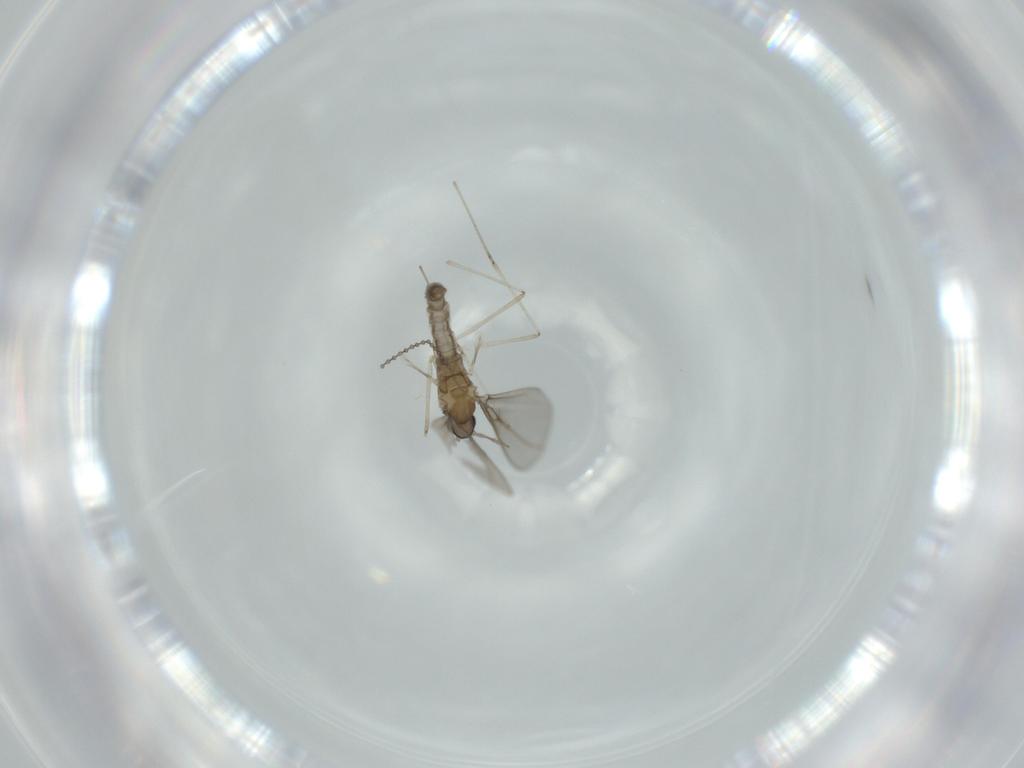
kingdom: Animalia
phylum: Arthropoda
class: Insecta
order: Diptera
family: Cecidomyiidae
